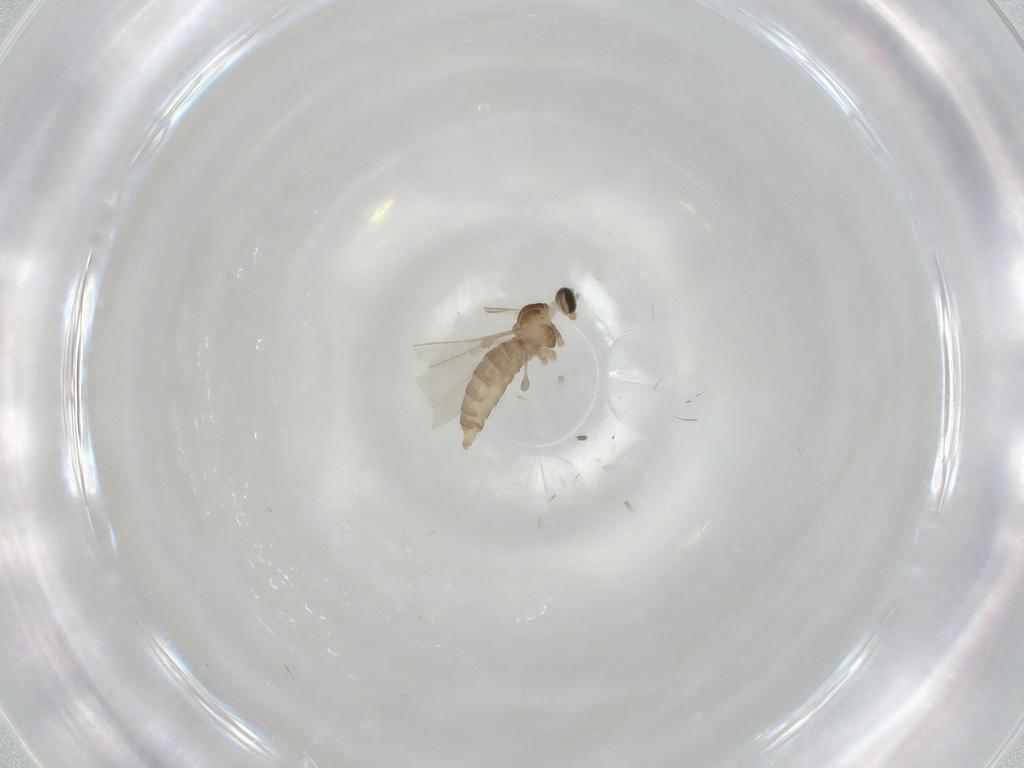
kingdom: Animalia
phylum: Arthropoda
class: Insecta
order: Diptera
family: Cecidomyiidae
